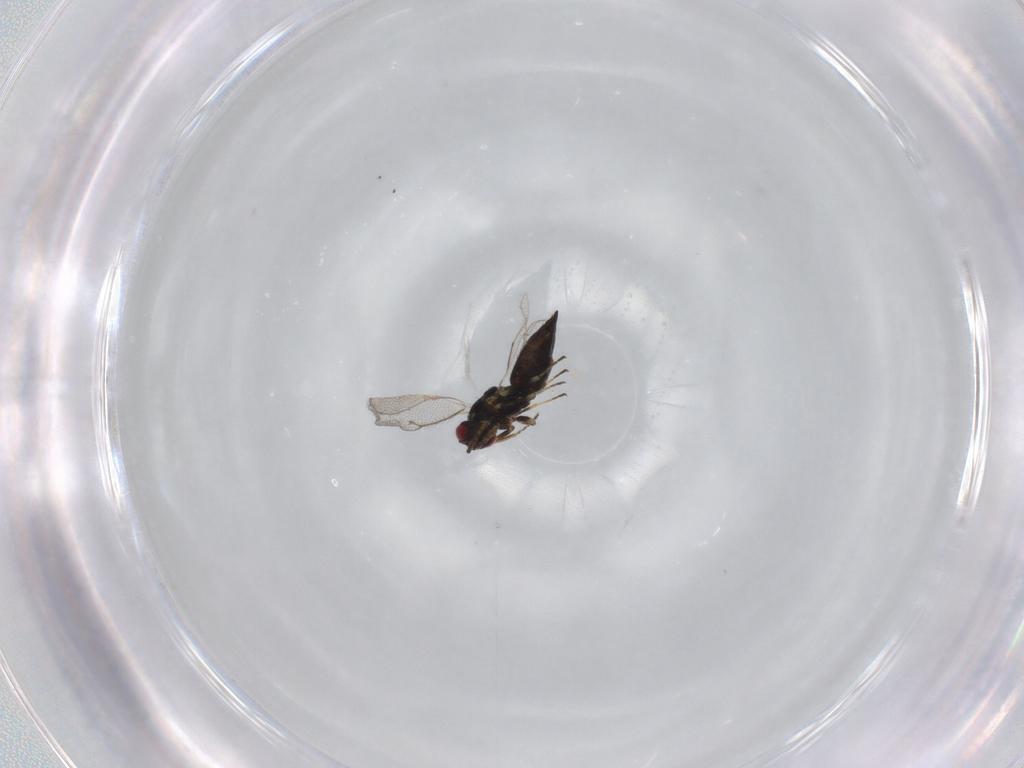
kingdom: Animalia
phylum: Arthropoda
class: Insecta
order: Hymenoptera
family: Eulophidae
